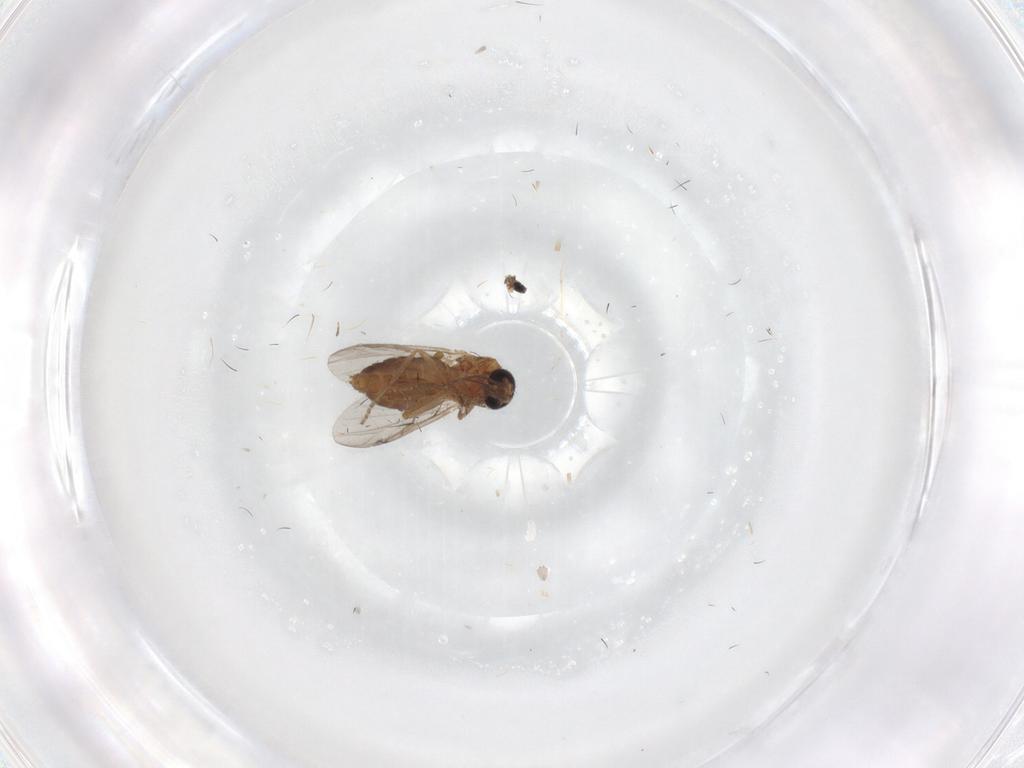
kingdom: Animalia
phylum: Arthropoda
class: Insecta
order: Diptera
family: Ceratopogonidae
